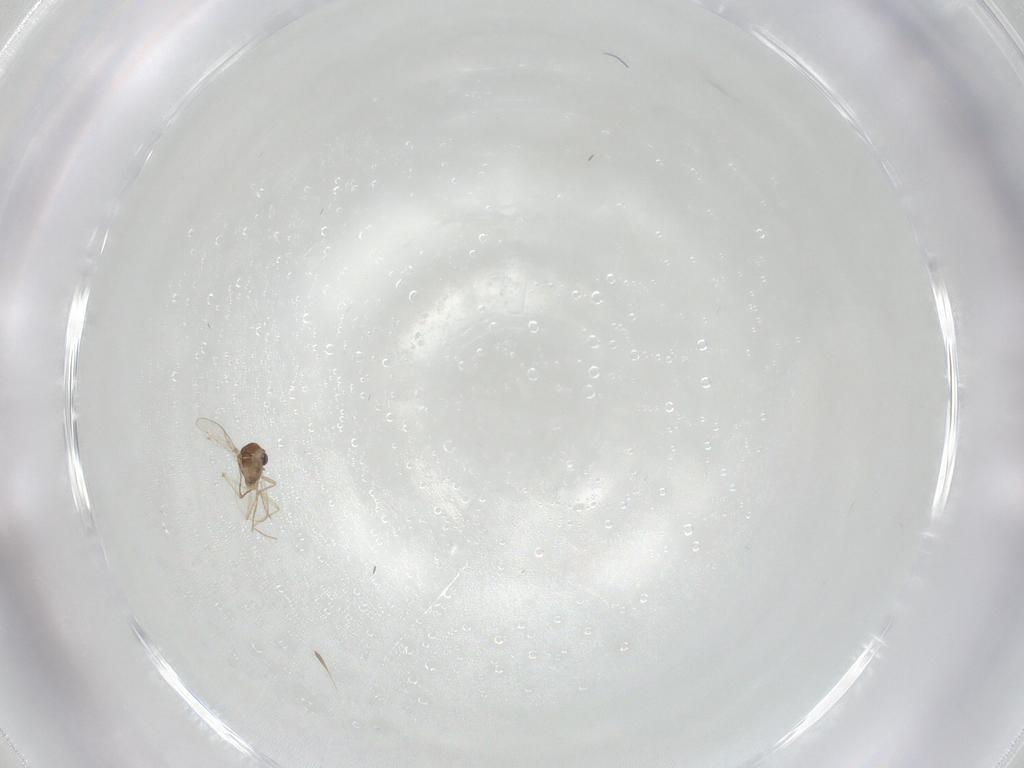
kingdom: Animalia
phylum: Arthropoda
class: Insecta
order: Diptera
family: Chironomidae
